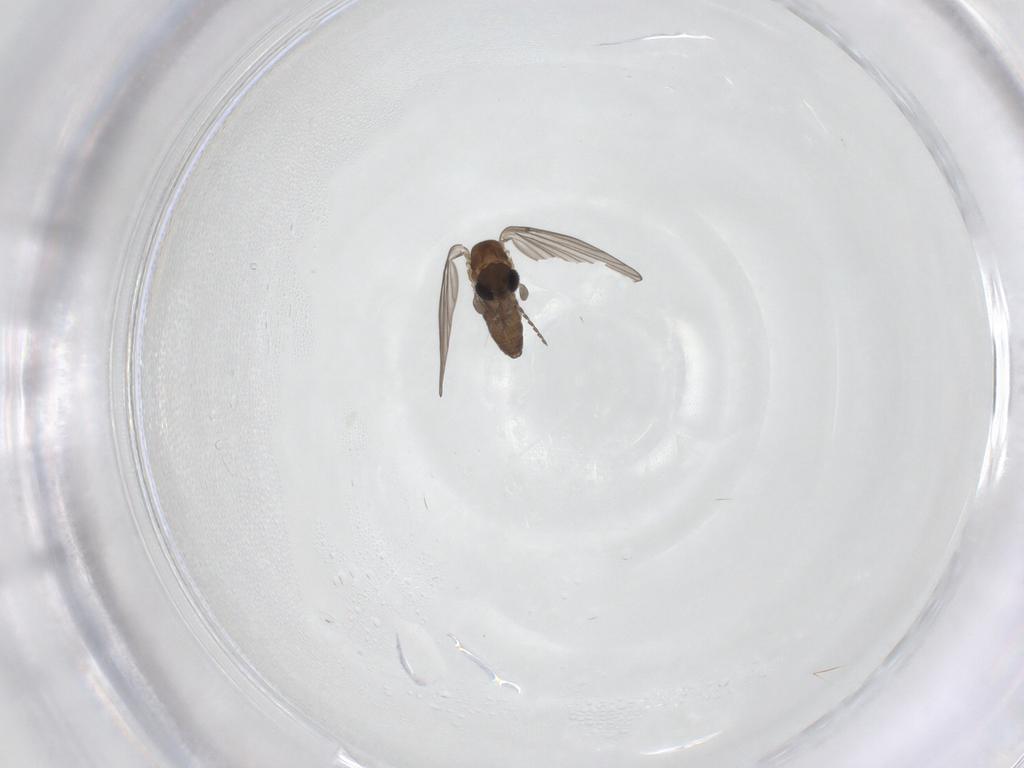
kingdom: Animalia
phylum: Arthropoda
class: Insecta
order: Diptera
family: Psychodidae
